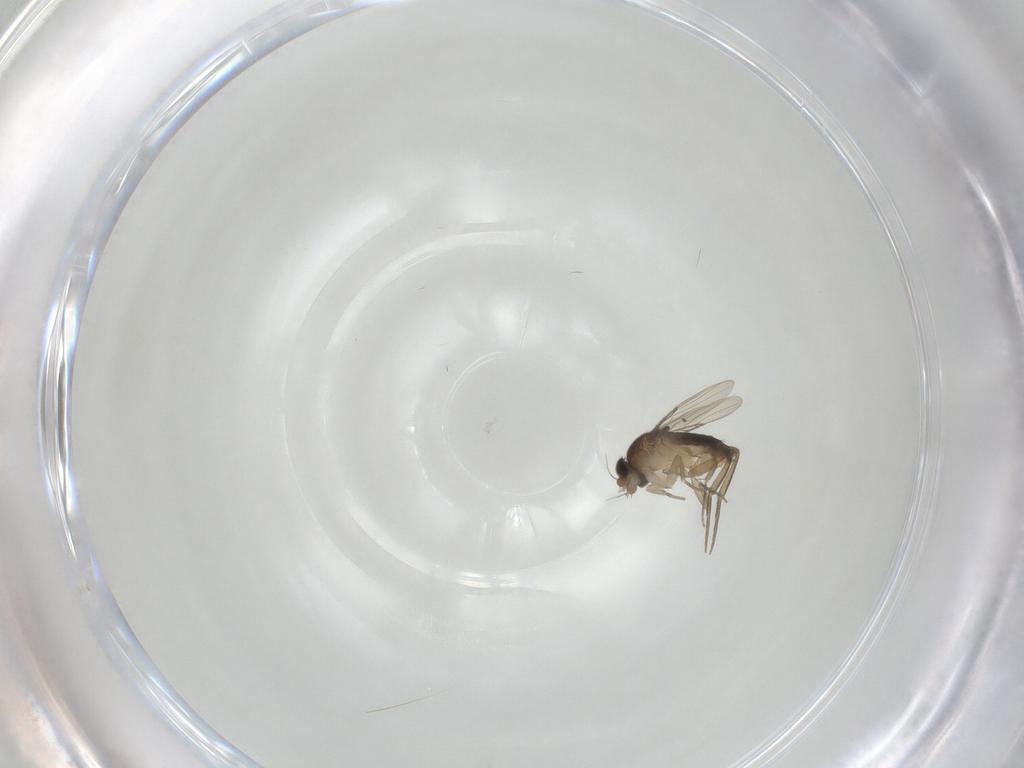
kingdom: Animalia
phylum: Arthropoda
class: Insecta
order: Diptera
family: Phoridae
